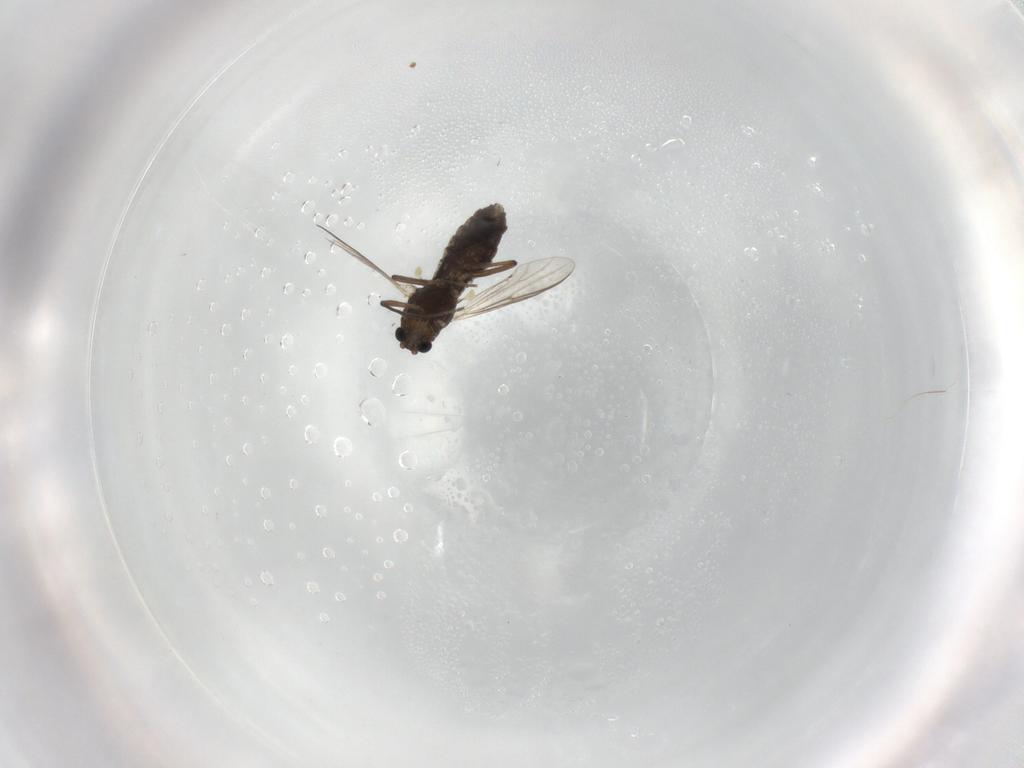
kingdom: Animalia
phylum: Arthropoda
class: Insecta
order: Diptera
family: Chironomidae
